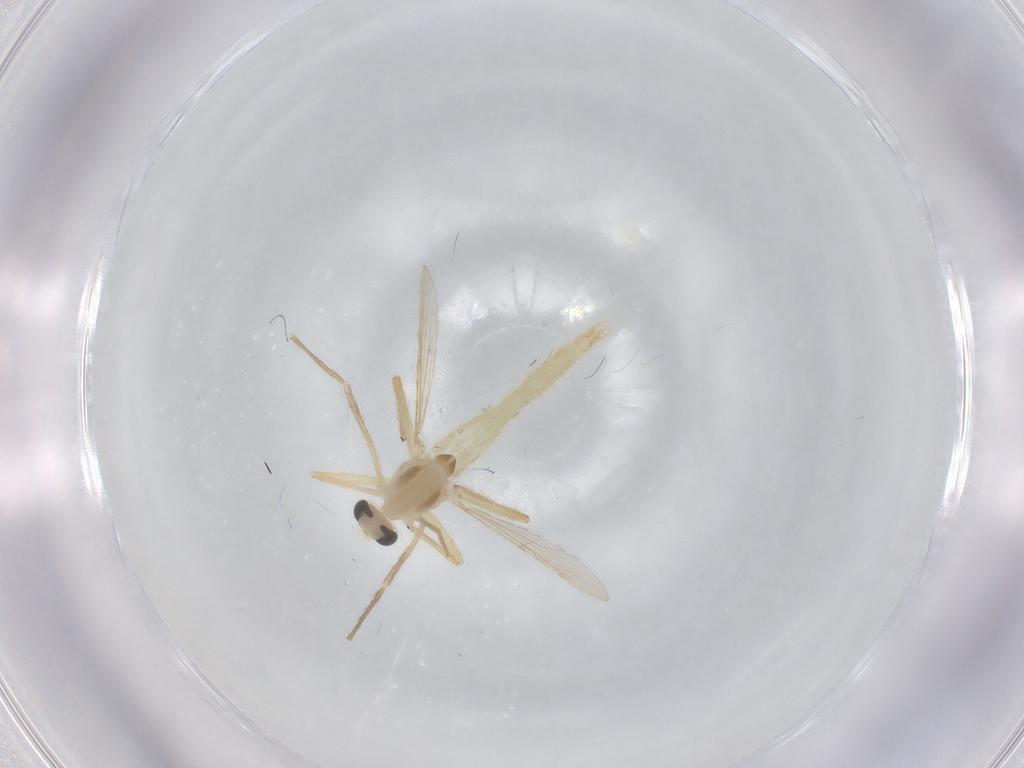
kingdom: Animalia
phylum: Arthropoda
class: Insecta
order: Diptera
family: Chironomidae
